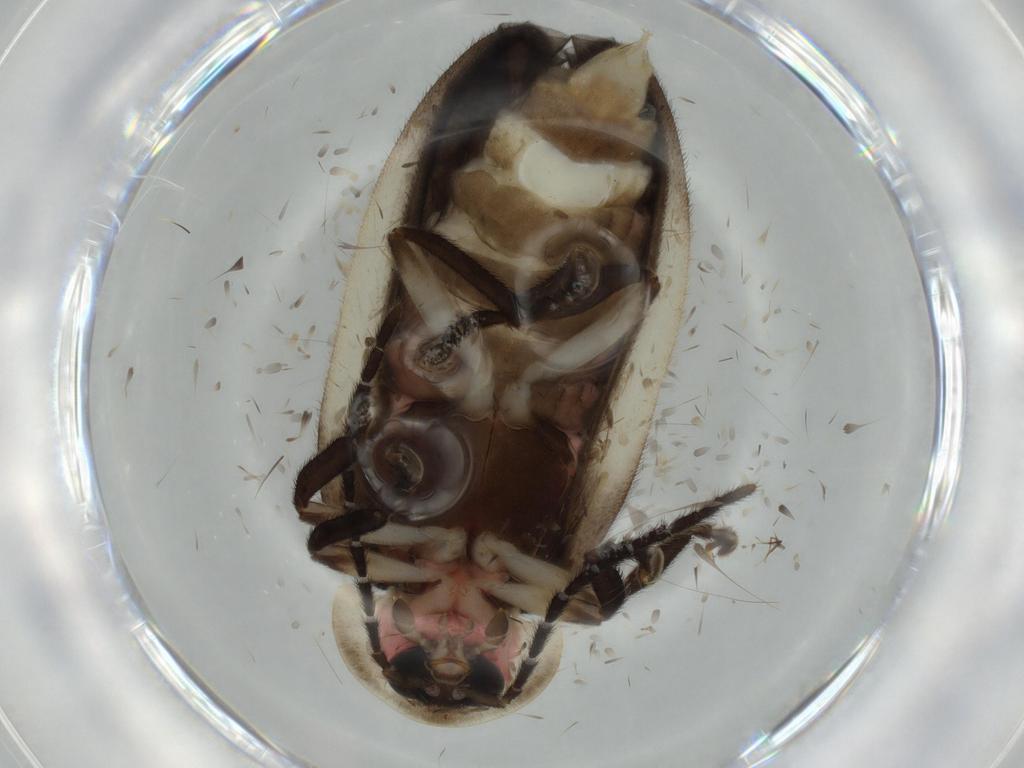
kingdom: Animalia
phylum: Arthropoda
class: Insecta
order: Coleoptera
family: Lampyridae
